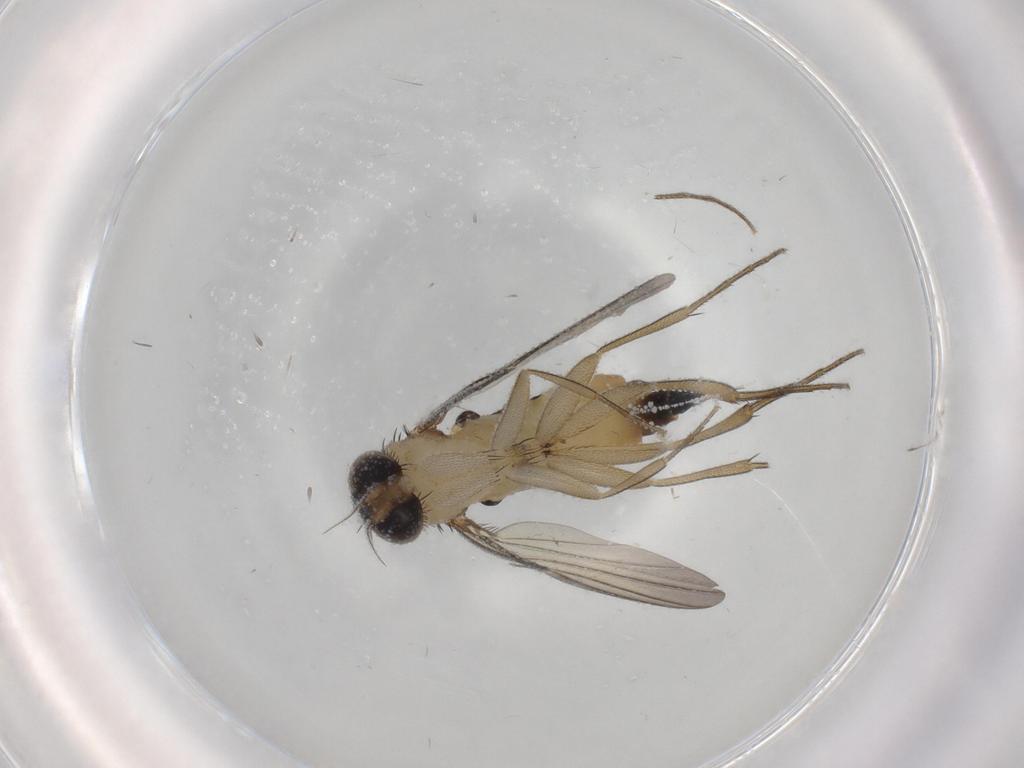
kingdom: Animalia
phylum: Arthropoda
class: Insecta
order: Diptera
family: Phoridae
